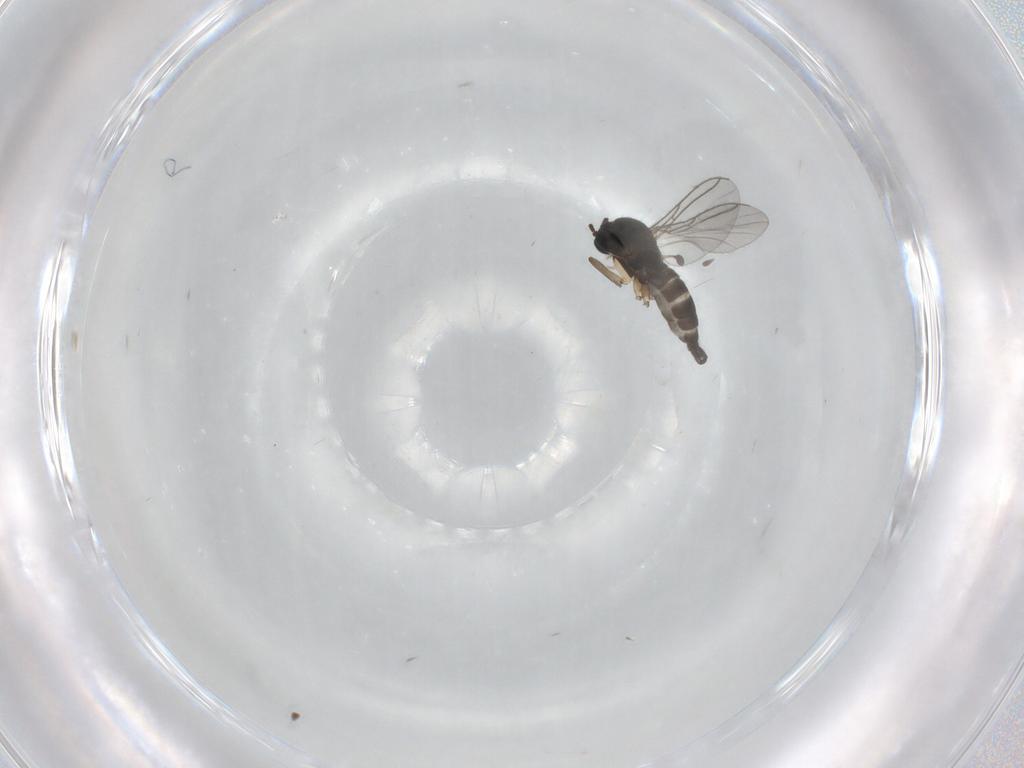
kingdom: Animalia
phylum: Arthropoda
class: Insecta
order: Diptera
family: Sciaridae
